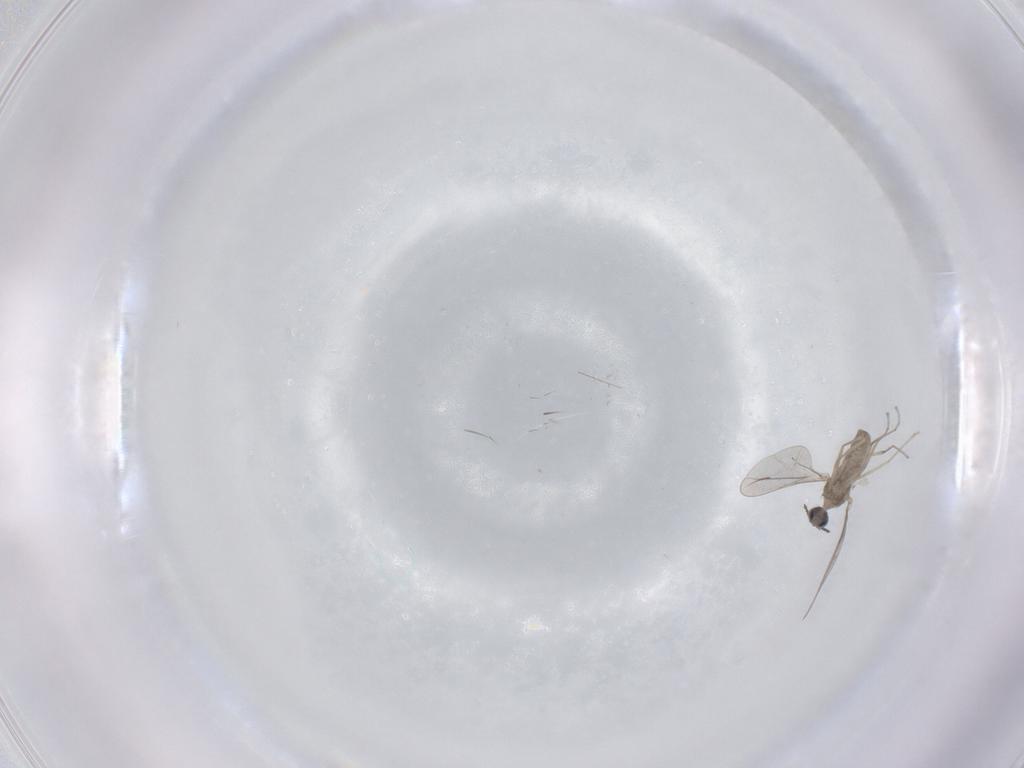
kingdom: Animalia
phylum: Arthropoda
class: Insecta
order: Diptera
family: Cecidomyiidae
